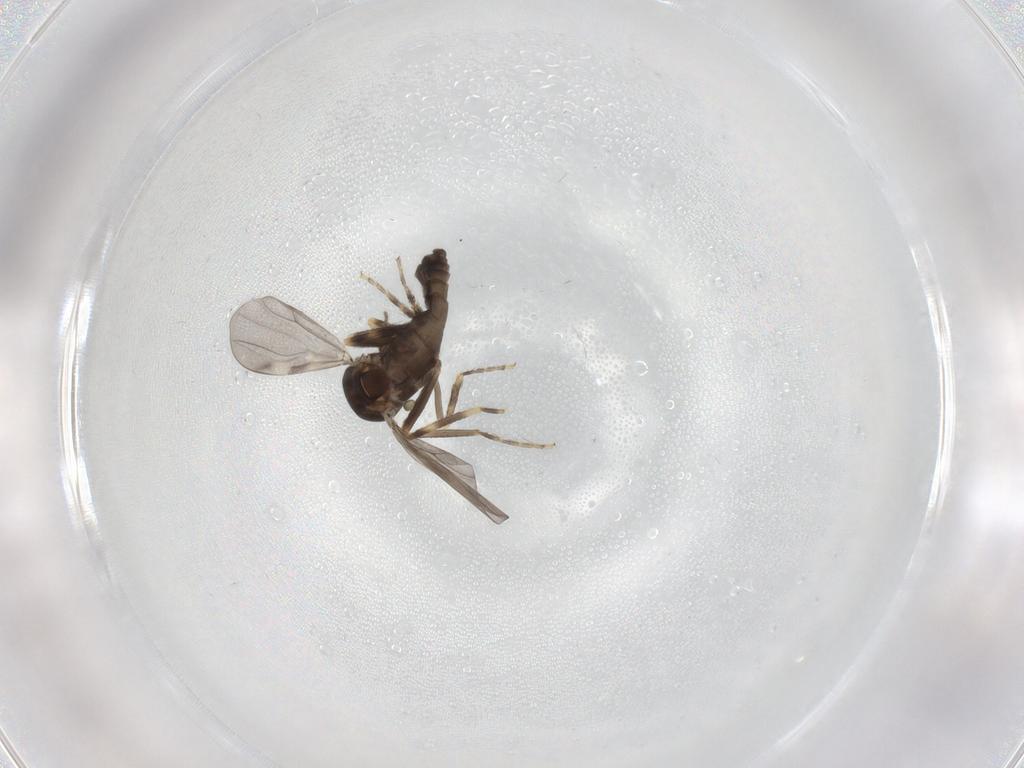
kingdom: Animalia
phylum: Arthropoda
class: Insecta
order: Diptera
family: Ceratopogonidae
